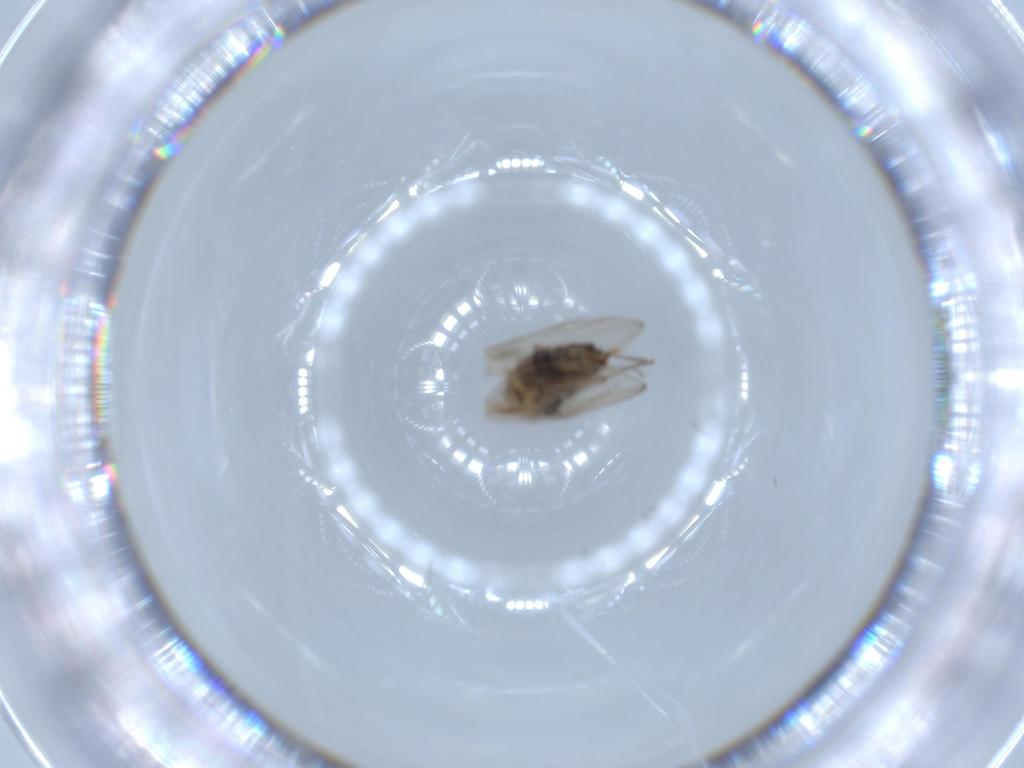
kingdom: Animalia
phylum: Arthropoda
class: Insecta
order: Diptera
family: Psychodidae
